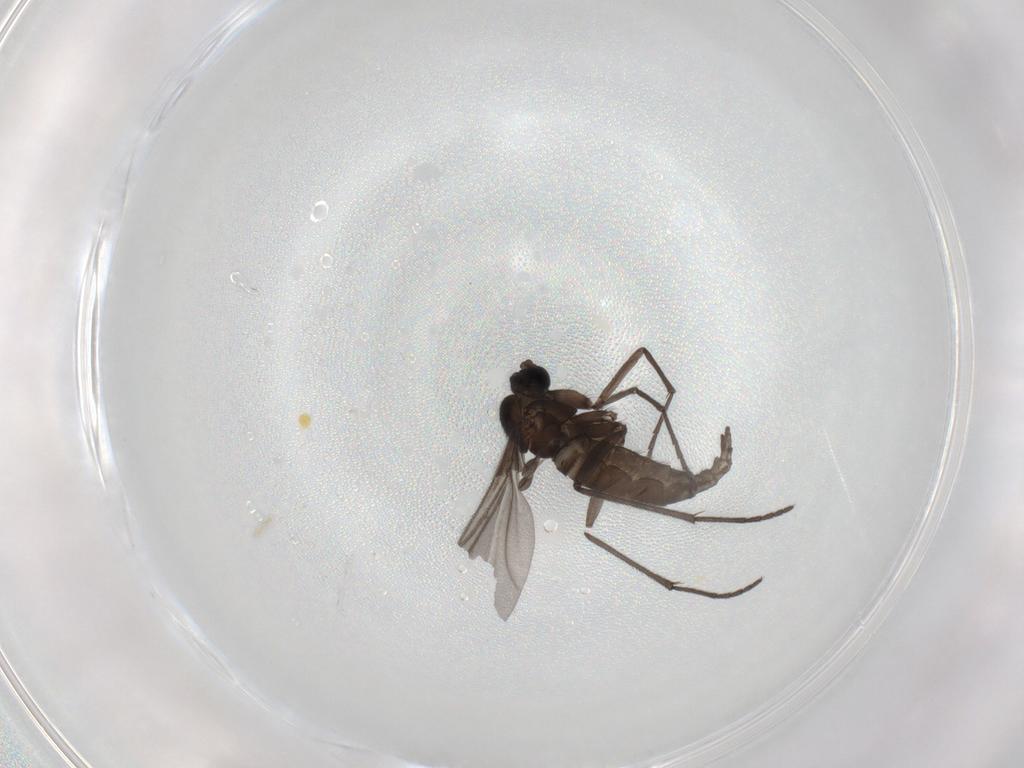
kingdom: Animalia
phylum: Arthropoda
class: Insecta
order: Diptera
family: Sciaridae
